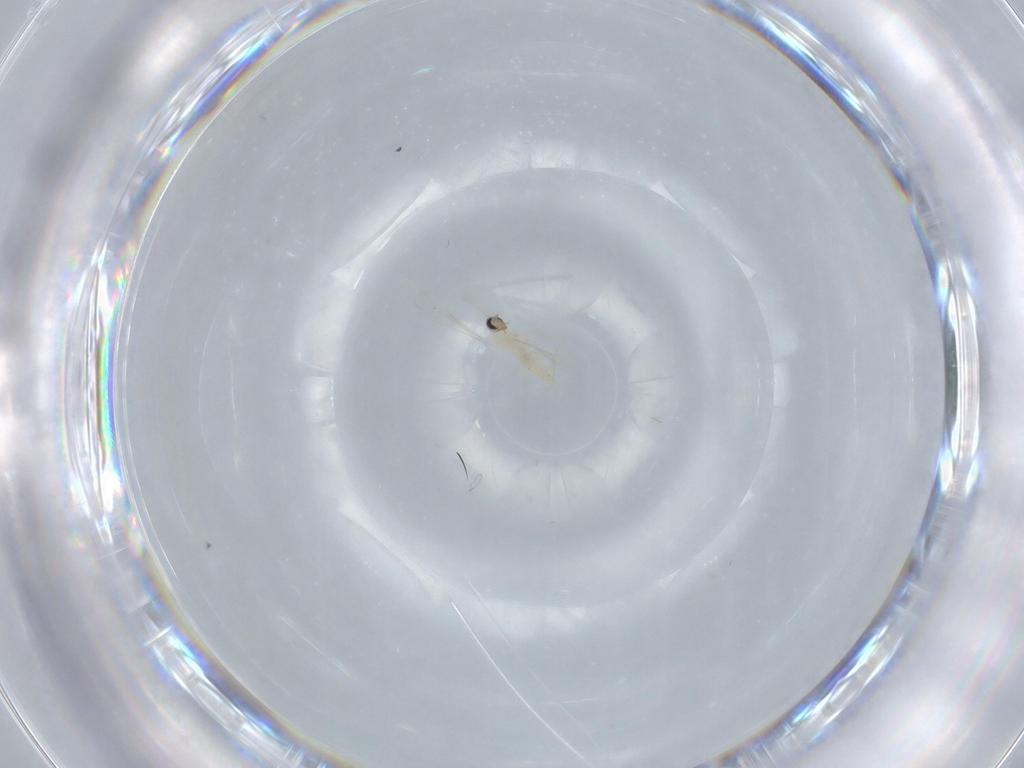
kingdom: Animalia
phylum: Arthropoda
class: Insecta
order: Diptera
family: Cecidomyiidae
